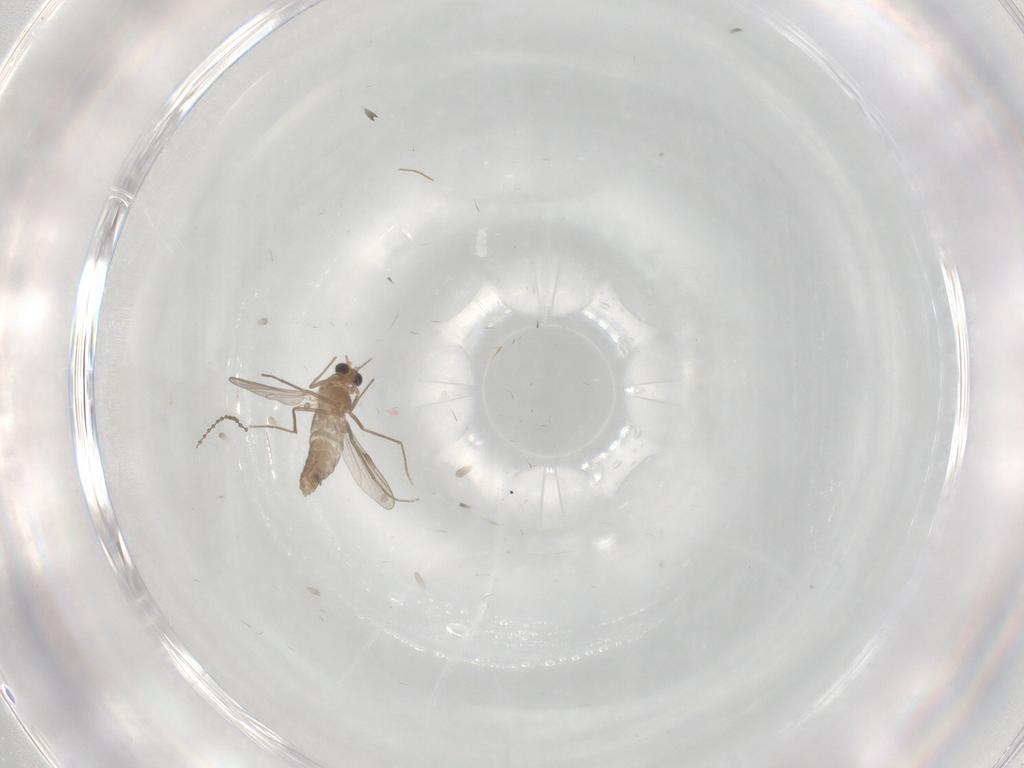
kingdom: Animalia
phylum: Arthropoda
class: Insecta
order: Diptera
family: Chironomidae
